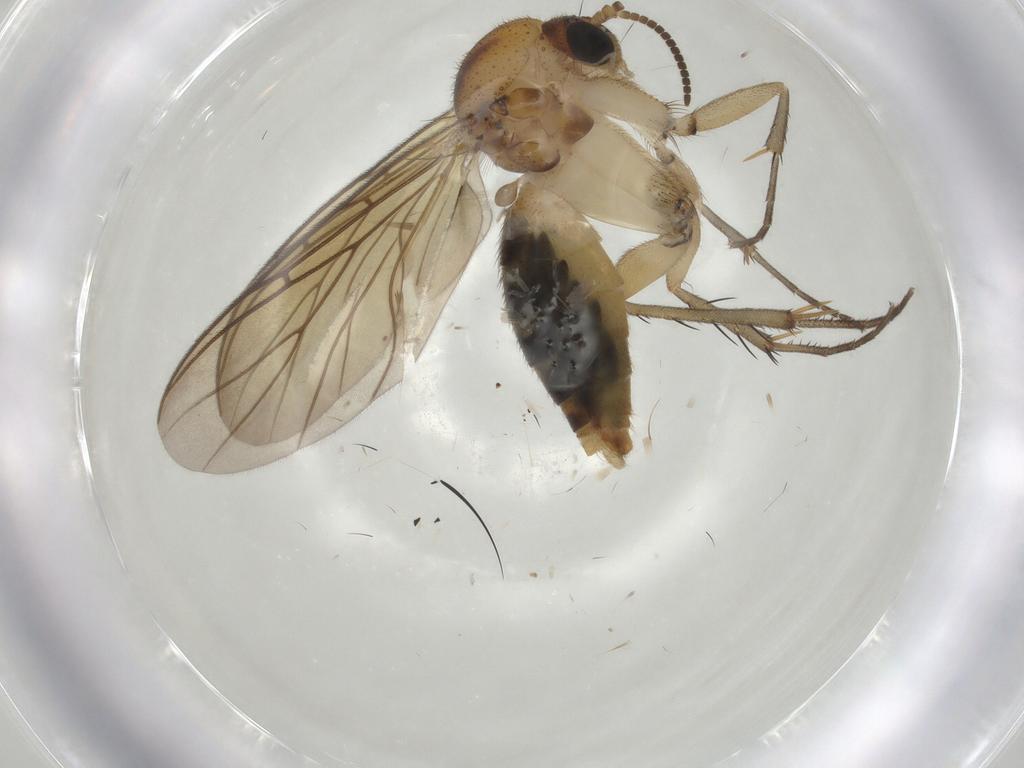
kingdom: Animalia
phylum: Arthropoda
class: Insecta
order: Diptera
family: Mycetophilidae
